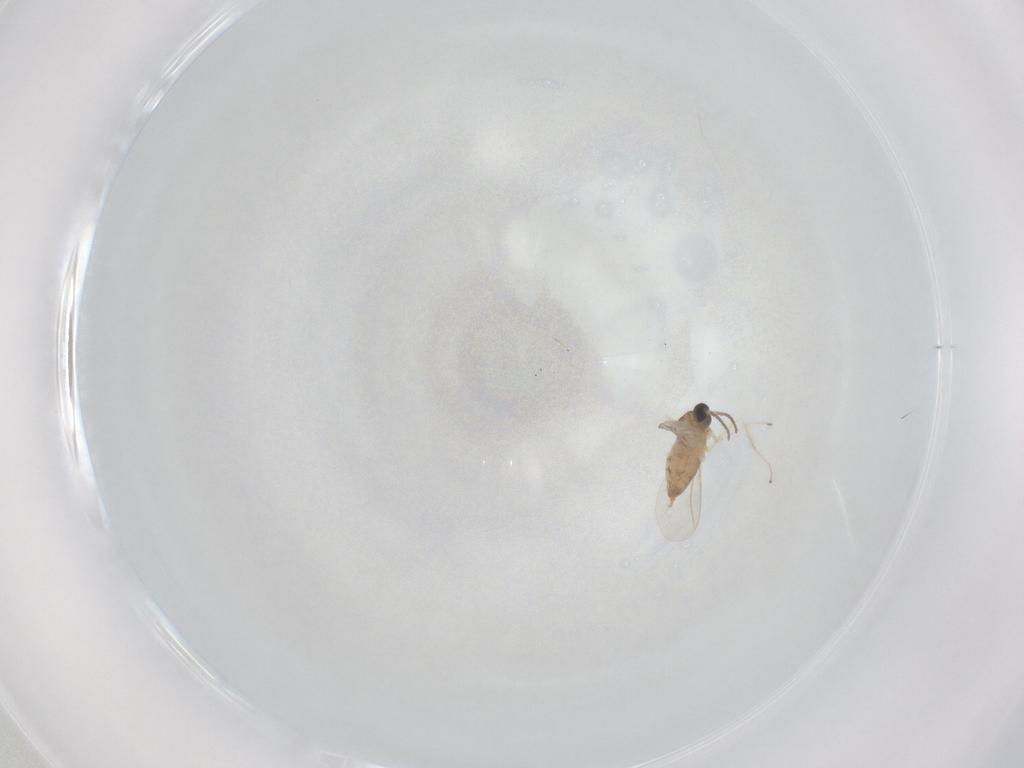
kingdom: Animalia
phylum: Arthropoda
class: Insecta
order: Diptera
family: Cecidomyiidae
